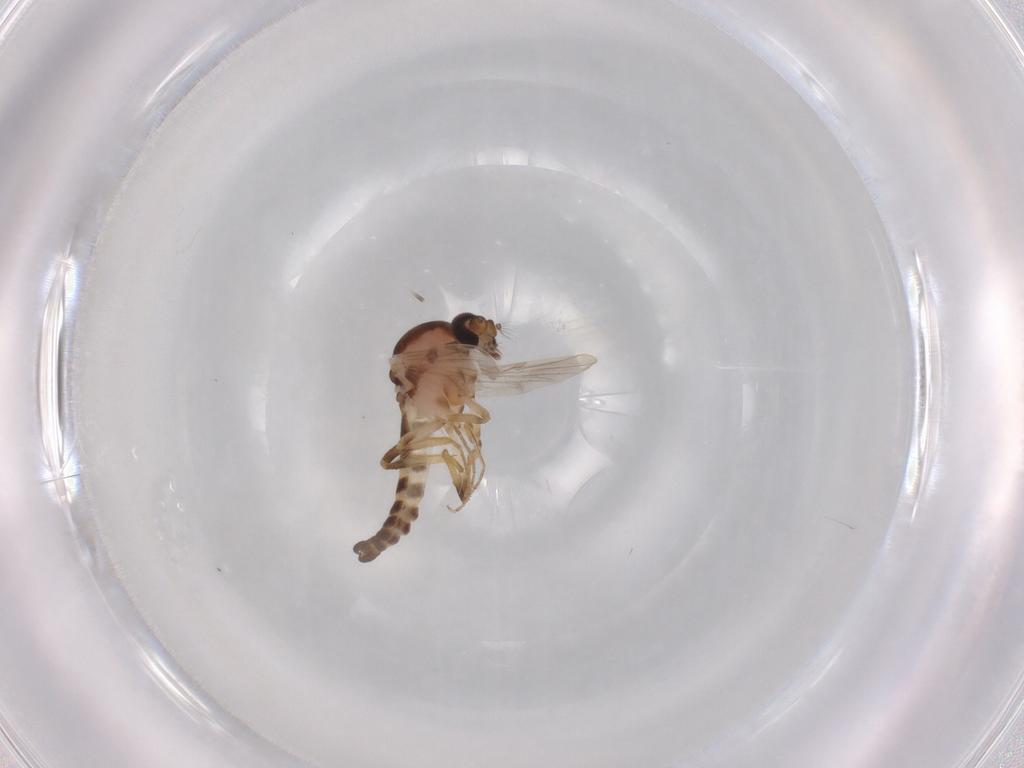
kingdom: Animalia
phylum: Arthropoda
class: Insecta
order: Diptera
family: Ceratopogonidae
